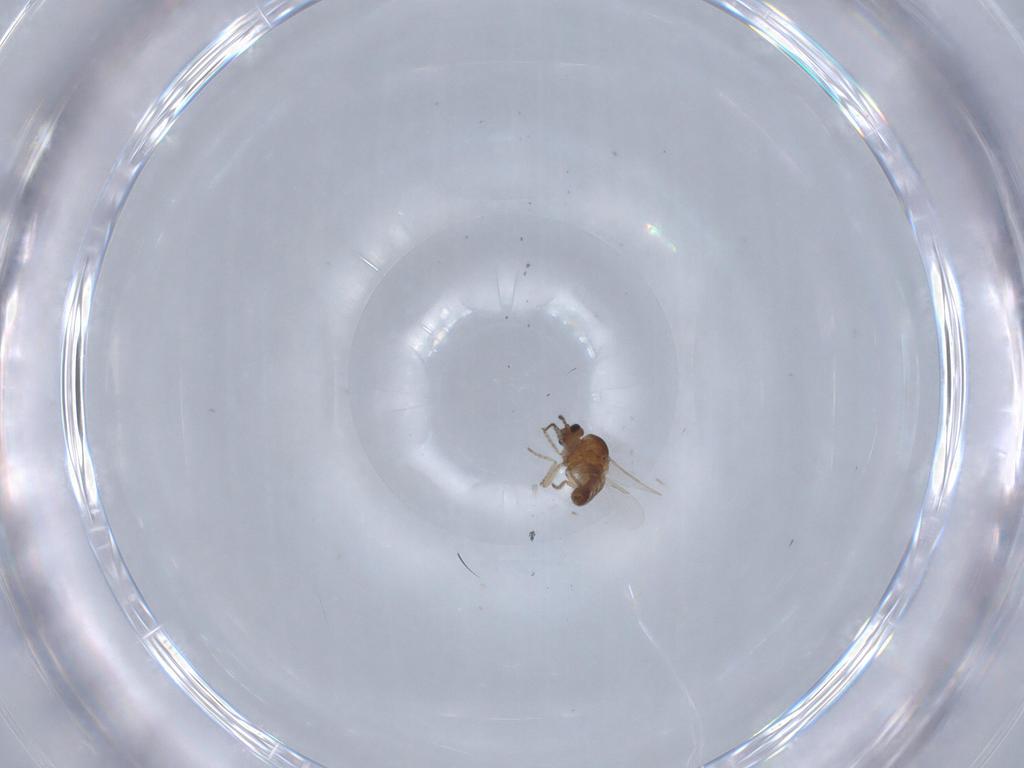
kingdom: Animalia
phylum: Arthropoda
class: Insecta
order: Diptera
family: Ceratopogonidae
